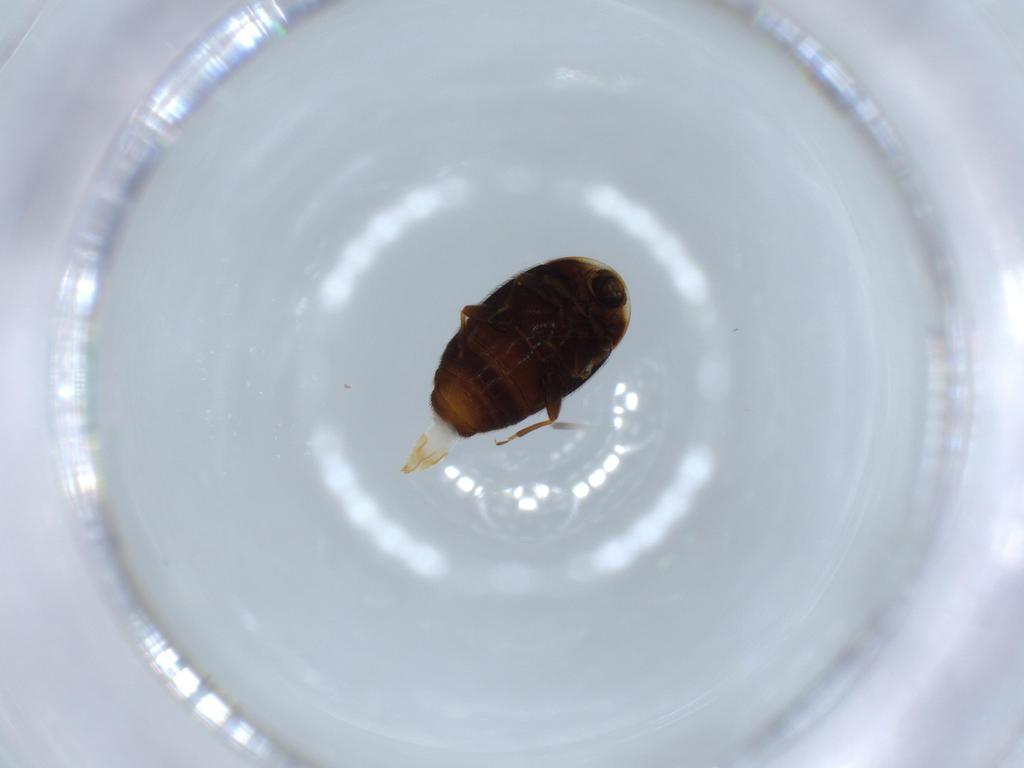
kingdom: Animalia
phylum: Arthropoda
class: Insecta
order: Coleoptera
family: Corylophidae
